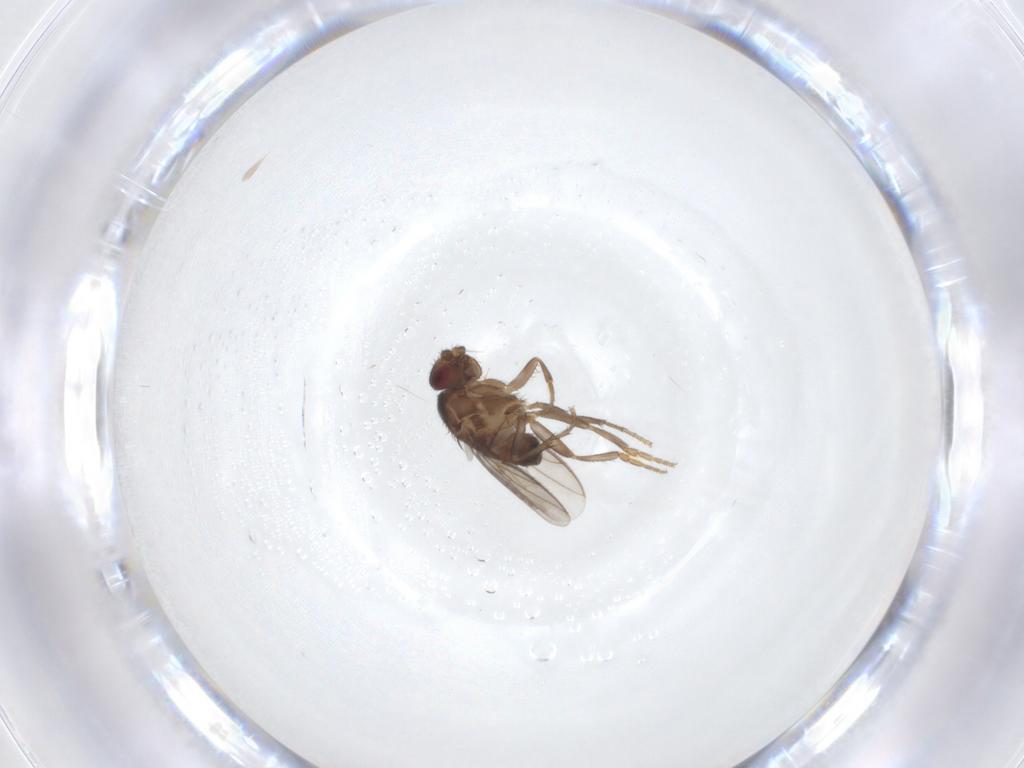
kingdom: Animalia
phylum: Arthropoda
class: Insecta
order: Diptera
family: Sphaeroceridae
